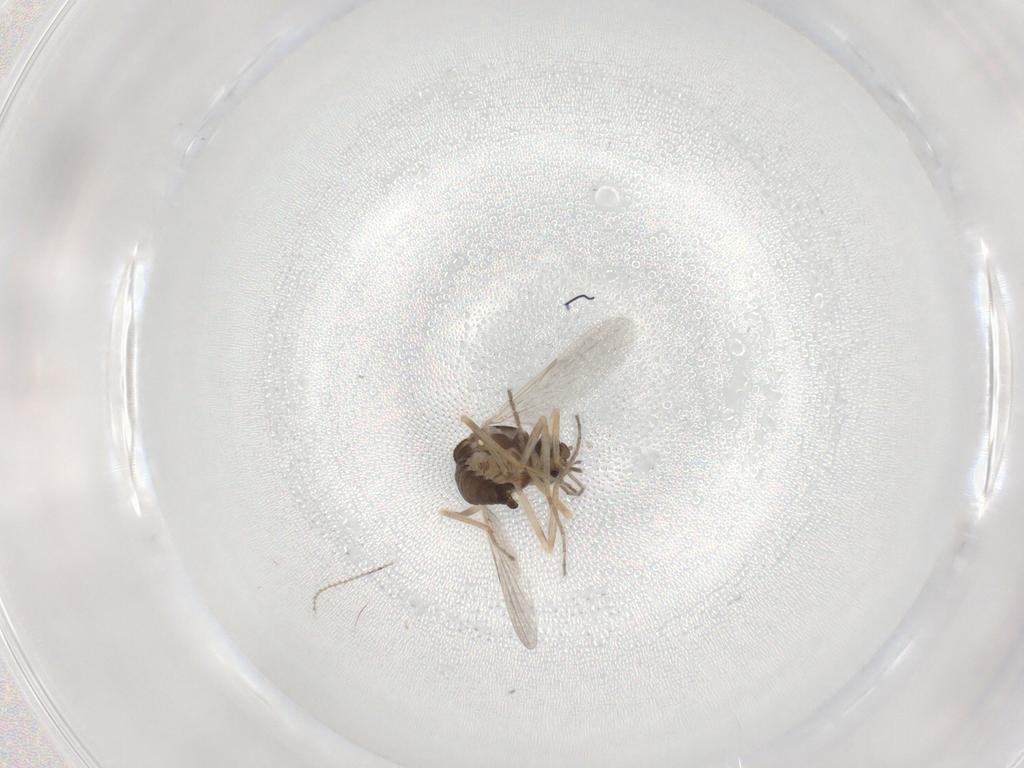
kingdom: Animalia
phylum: Arthropoda
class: Insecta
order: Diptera
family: Ceratopogonidae
